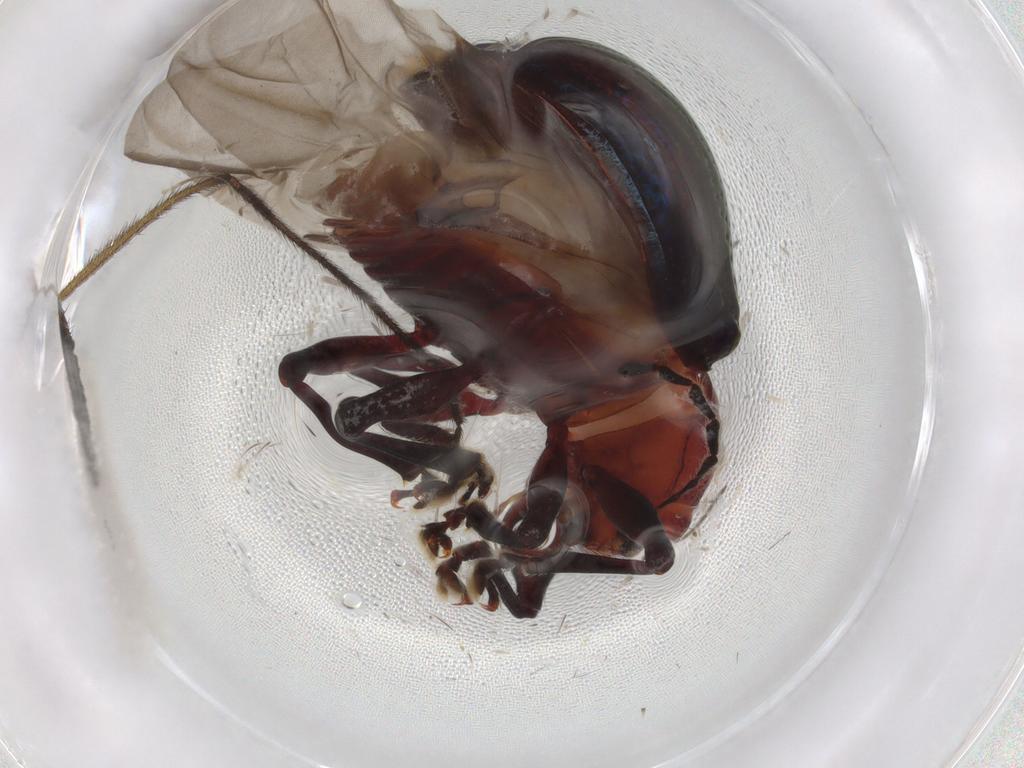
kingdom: Animalia
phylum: Arthropoda
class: Insecta
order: Coleoptera
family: Chrysomelidae
